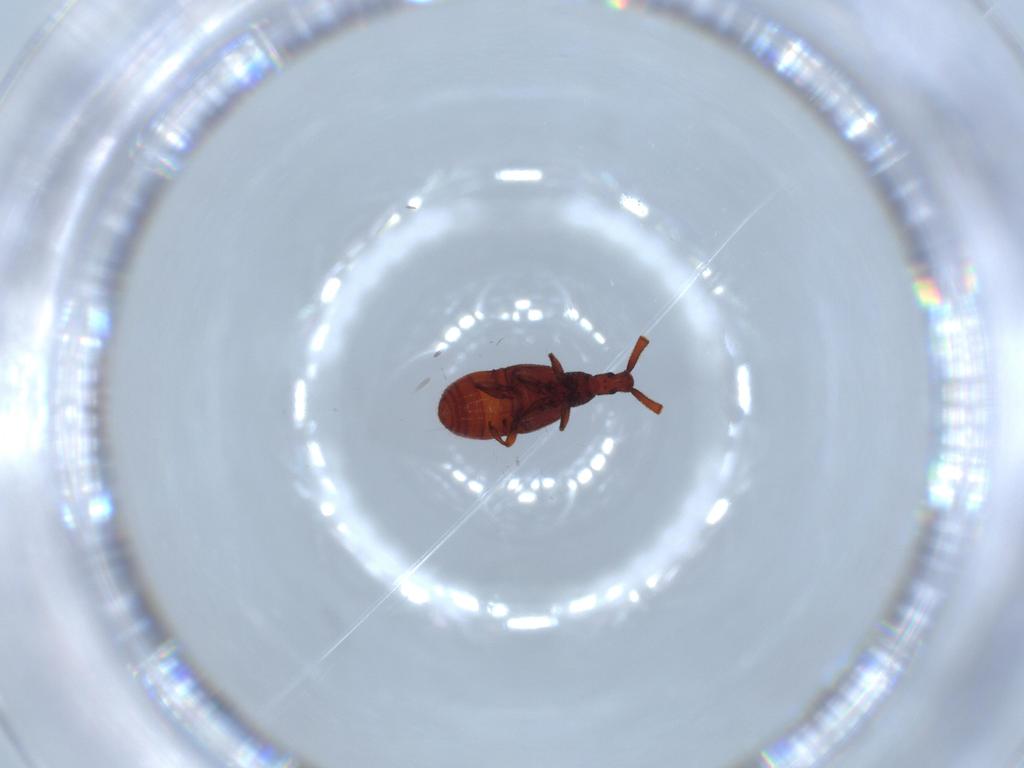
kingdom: Animalia
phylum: Arthropoda
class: Insecta
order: Coleoptera
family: Staphylinidae
